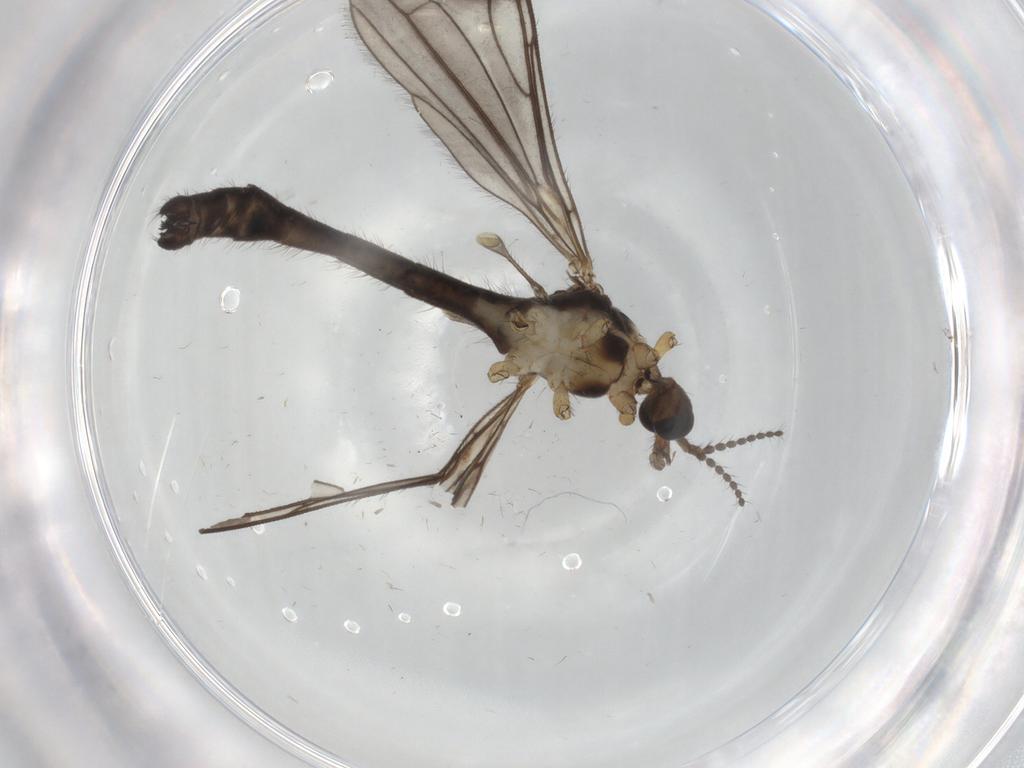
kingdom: Animalia
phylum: Arthropoda
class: Insecta
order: Diptera
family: Limoniidae
